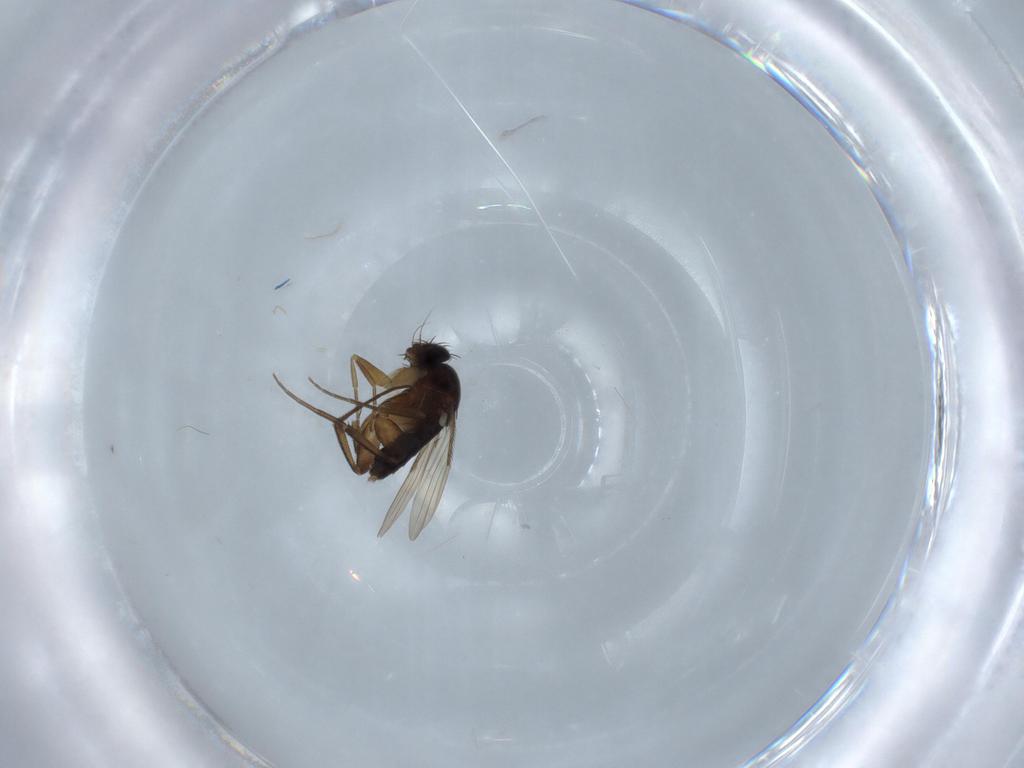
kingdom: Animalia
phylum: Arthropoda
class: Insecta
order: Diptera
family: Phoridae
